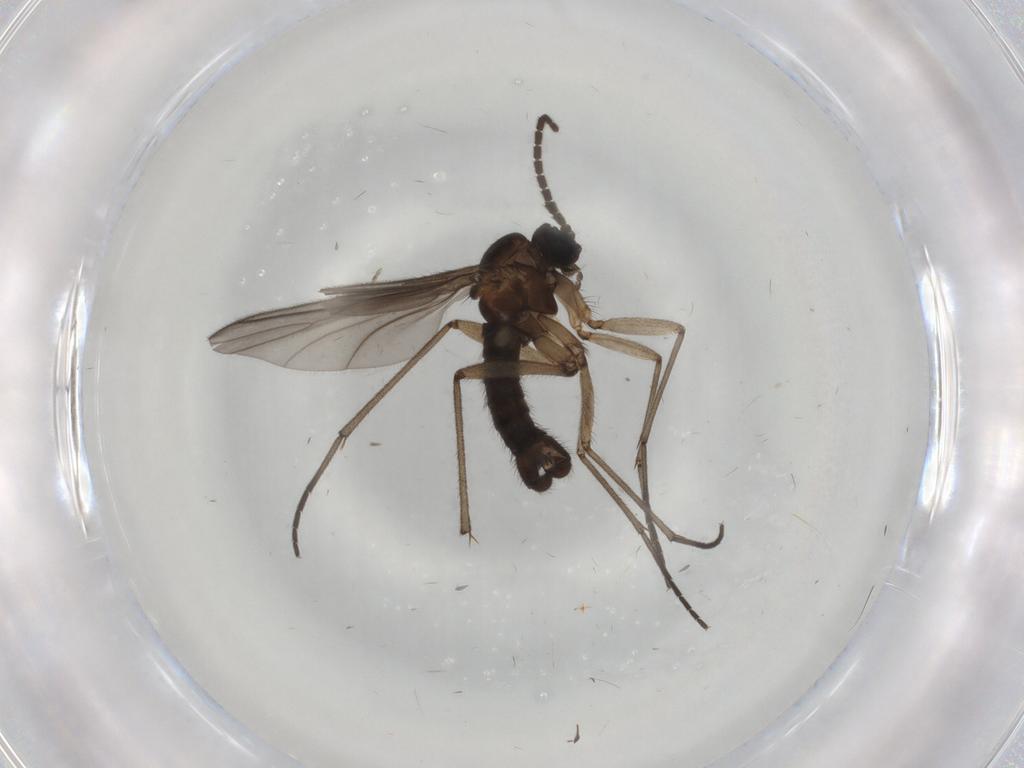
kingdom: Animalia
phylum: Arthropoda
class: Insecta
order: Diptera
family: Sciaridae
